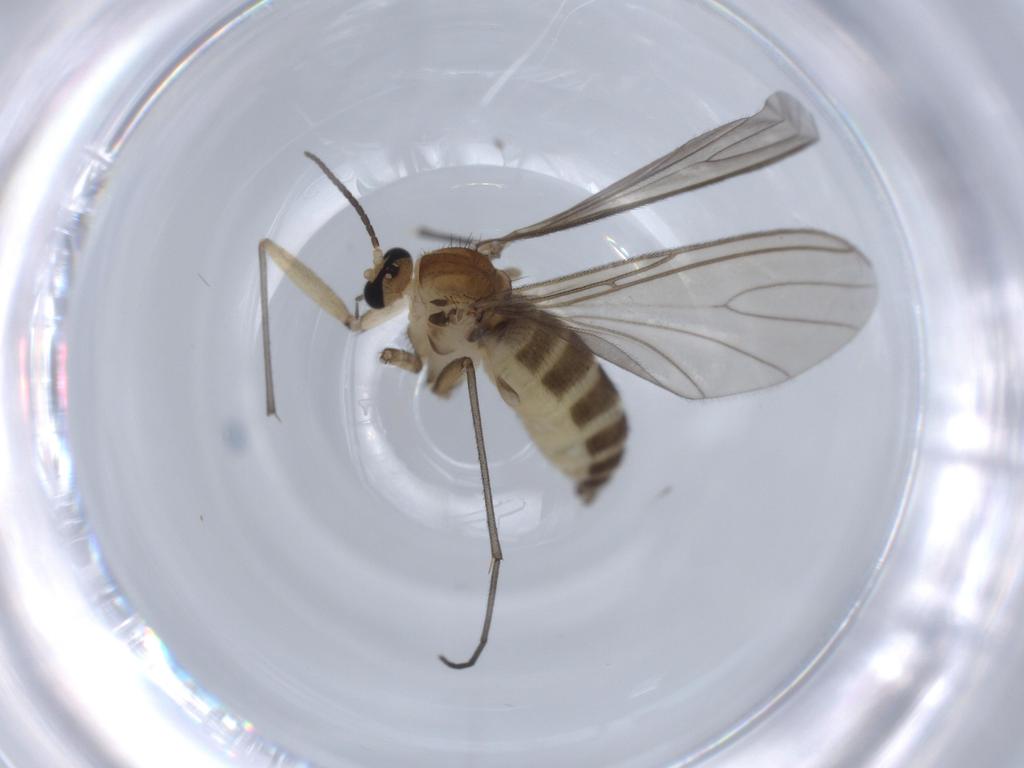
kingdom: Animalia
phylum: Arthropoda
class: Insecta
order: Diptera
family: Sciaridae
